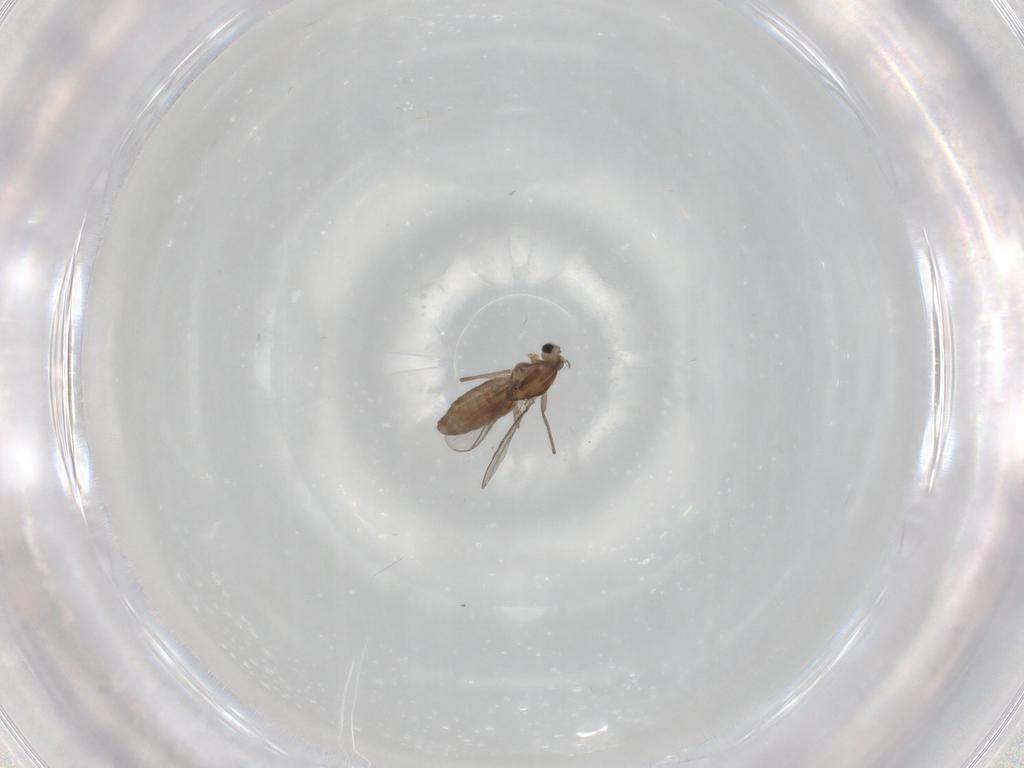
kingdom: Animalia
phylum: Arthropoda
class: Insecta
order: Diptera
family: Chironomidae
